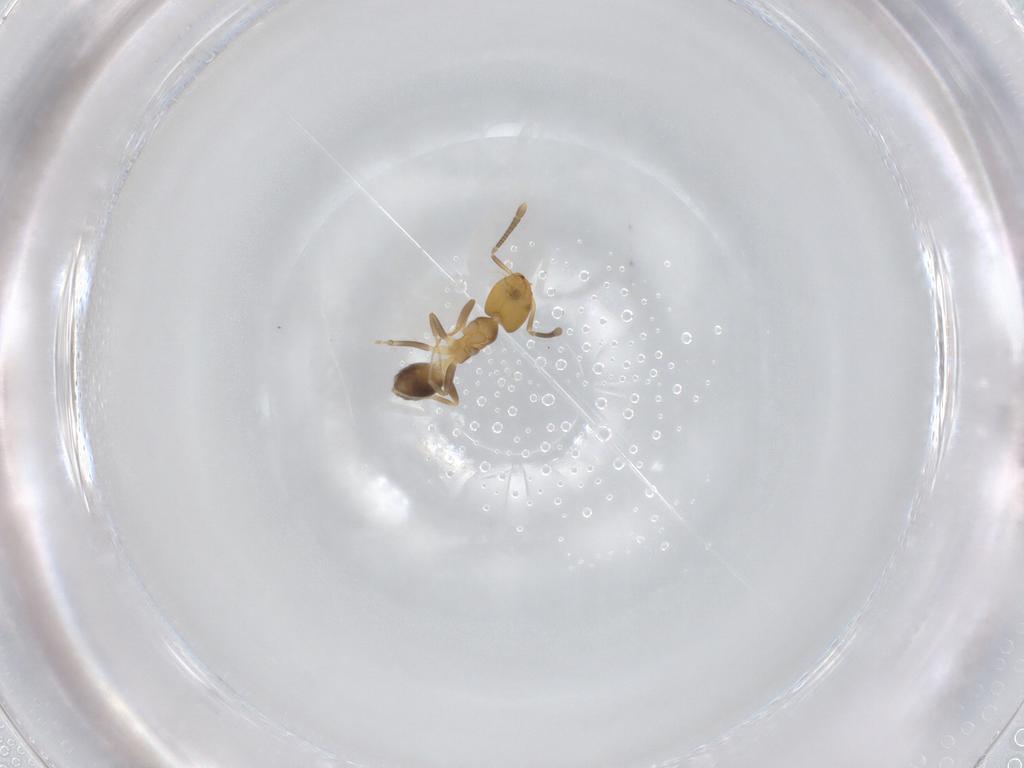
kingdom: Animalia
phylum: Arthropoda
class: Insecta
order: Hymenoptera
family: Formicidae
